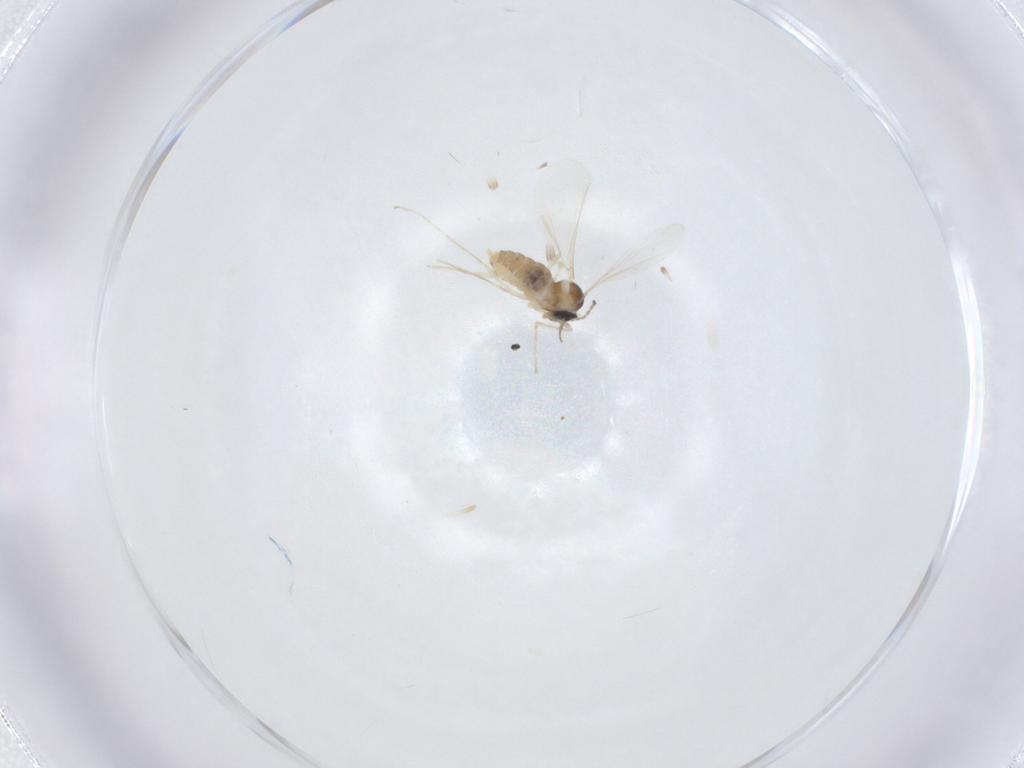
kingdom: Animalia
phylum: Arthropoda
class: Insecta
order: Diptera
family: Cecidomyiidae
